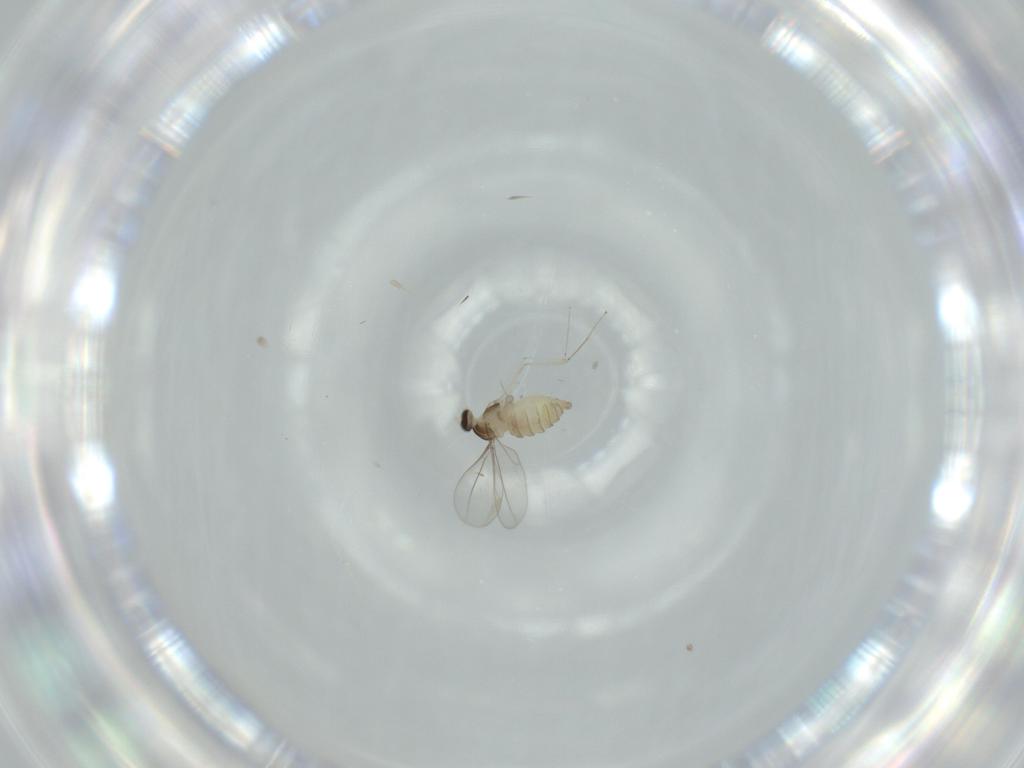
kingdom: Animalia
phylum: Arthropoda
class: Insecta
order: Diptera
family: Cecidomyiidae
